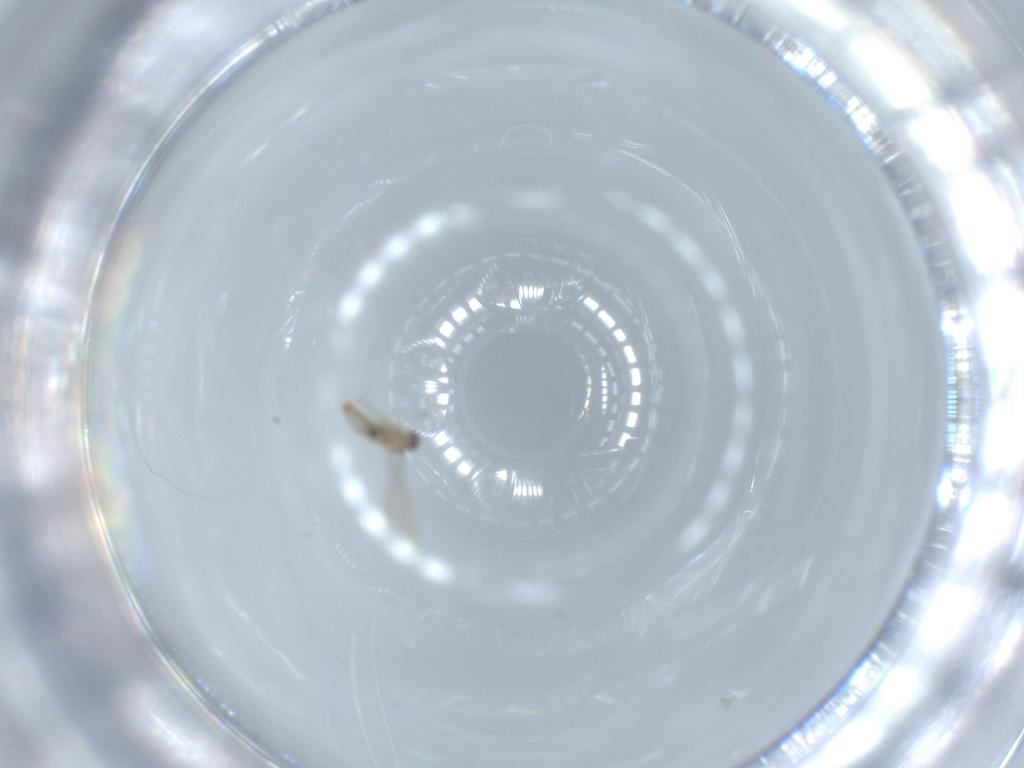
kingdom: Animalia
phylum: Arthropoda
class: Insecta
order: Diptera
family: Cecidomyiidae
